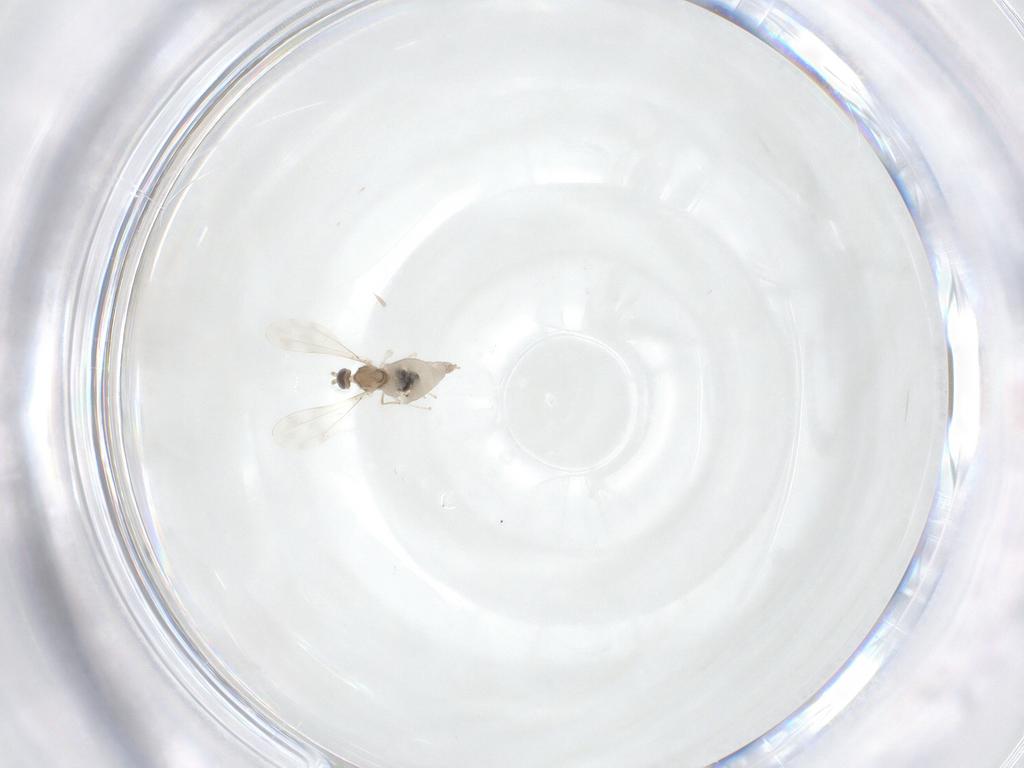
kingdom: Animalia
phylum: Arthropoda
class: Insecta
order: Diptera
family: Cecidomyiidae
